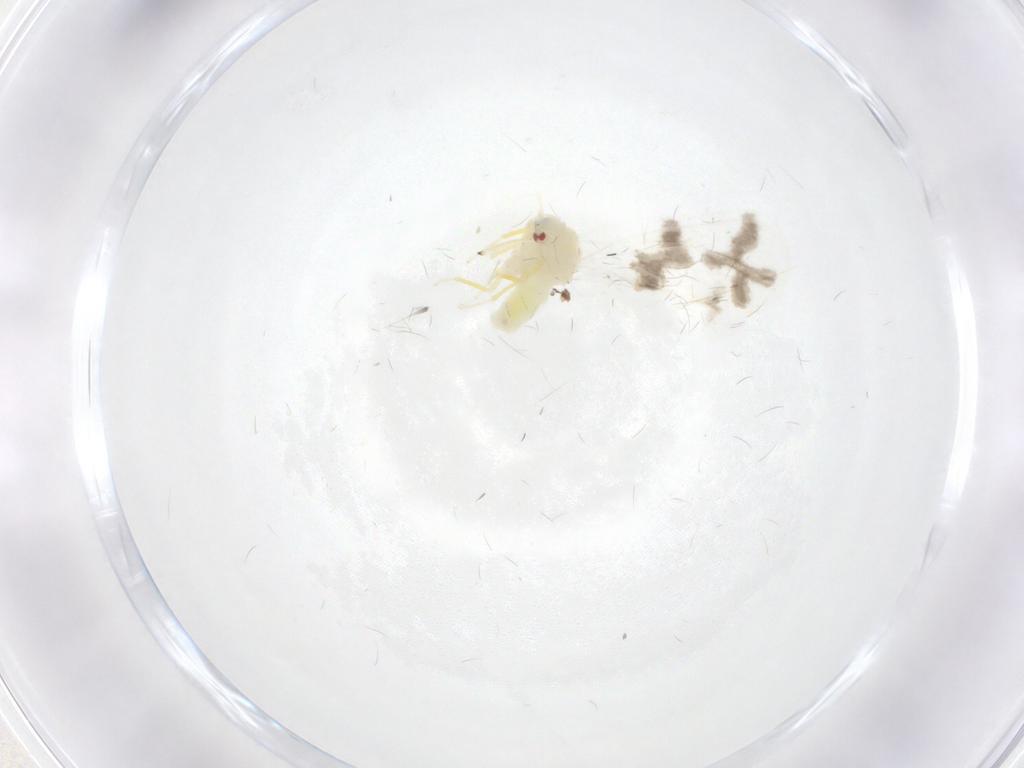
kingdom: Animalia
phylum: Arthropoda
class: Insecta
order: Hemiptera
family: Aleyrodidae
